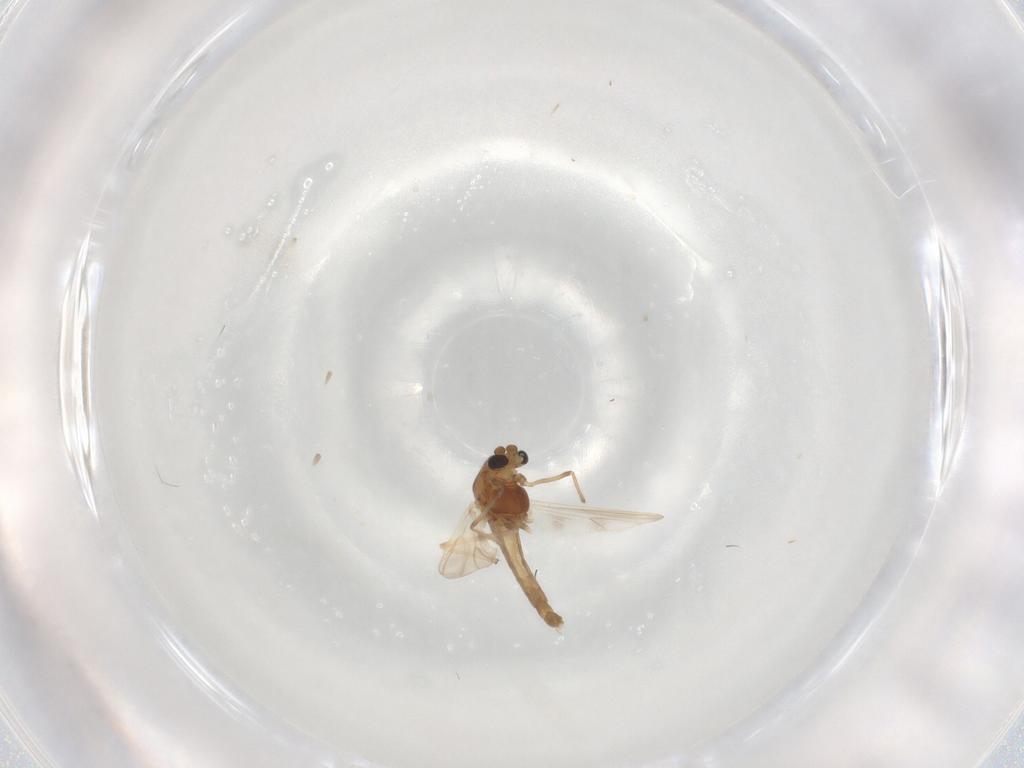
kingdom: Animalia
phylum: Arthropoda
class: Insecta
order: Diptera
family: Chironomidae
